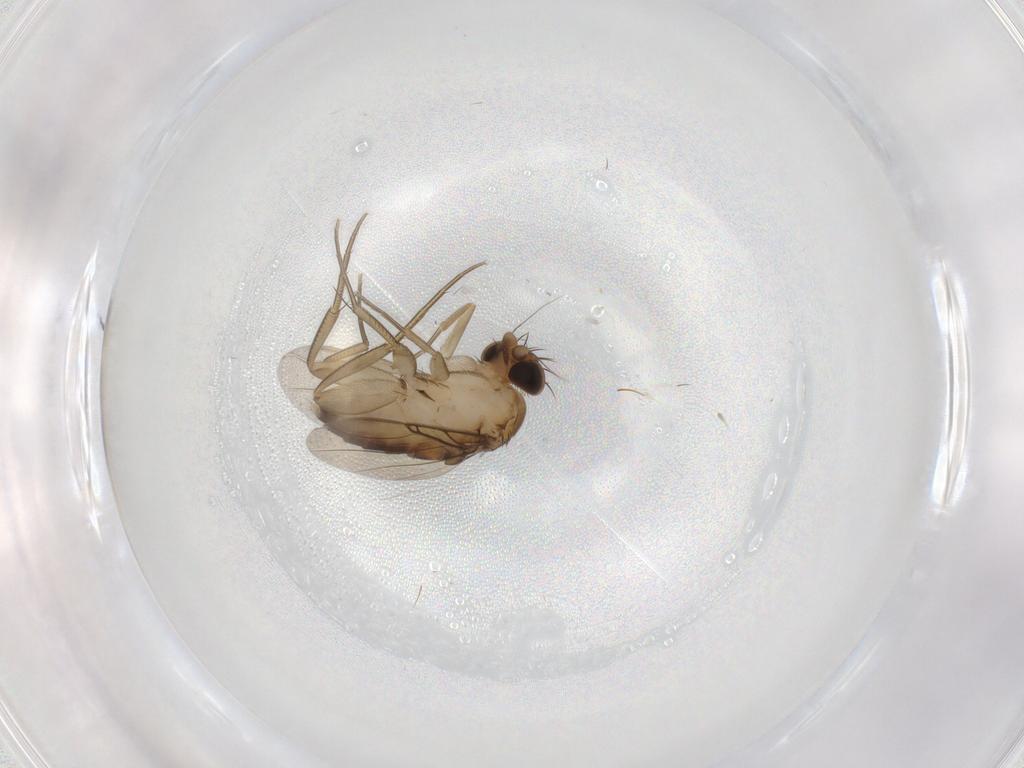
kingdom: Animalia
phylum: Arthropoda
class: Insecta
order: Diptera
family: Phoridae
